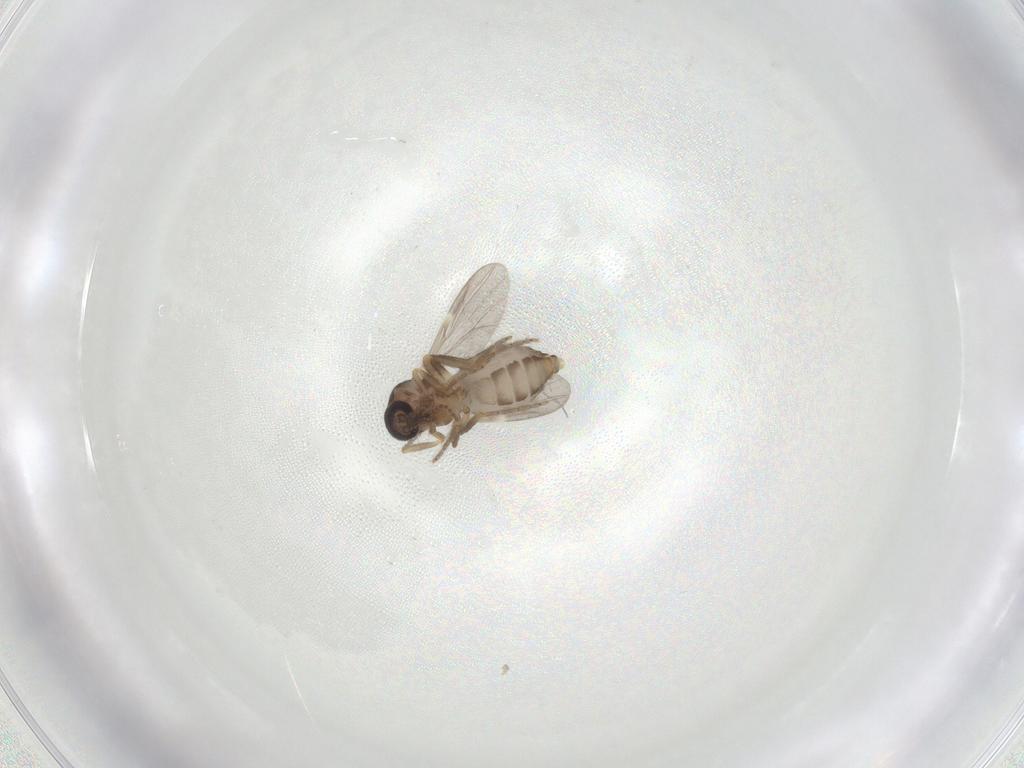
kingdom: Animalia
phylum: Arthropoda
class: Insecta
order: Diptera
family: Ceratopogonidae
